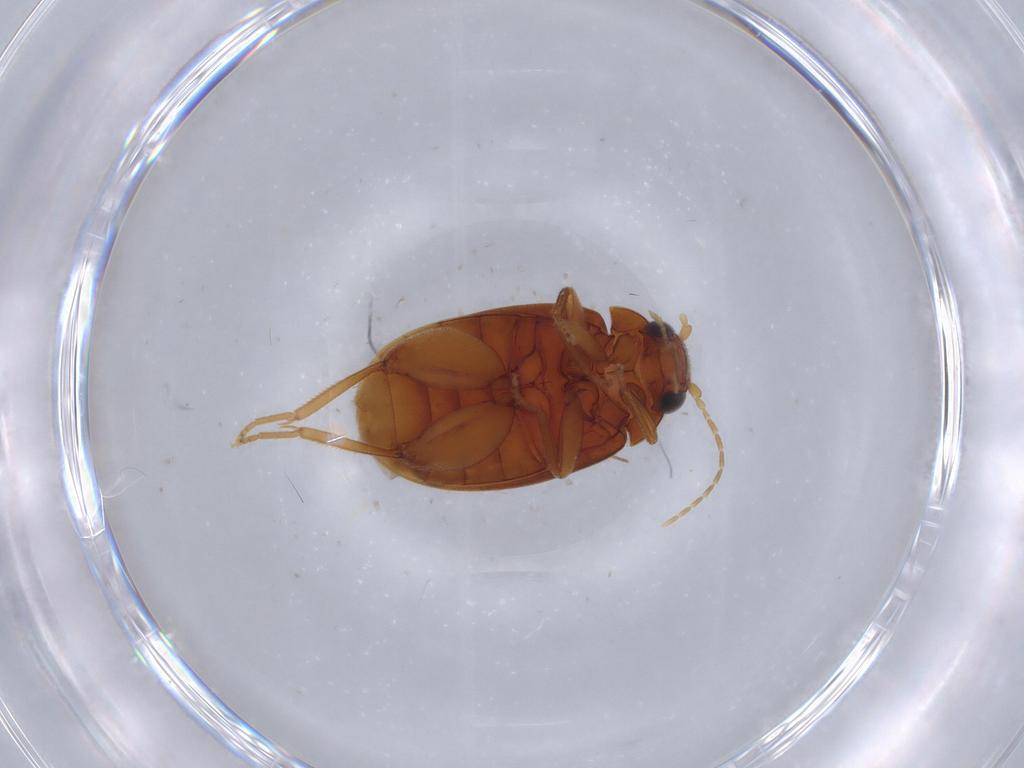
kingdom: Animalia
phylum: Arthropoda
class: Insecta
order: Coleoptera
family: Scirtidae
